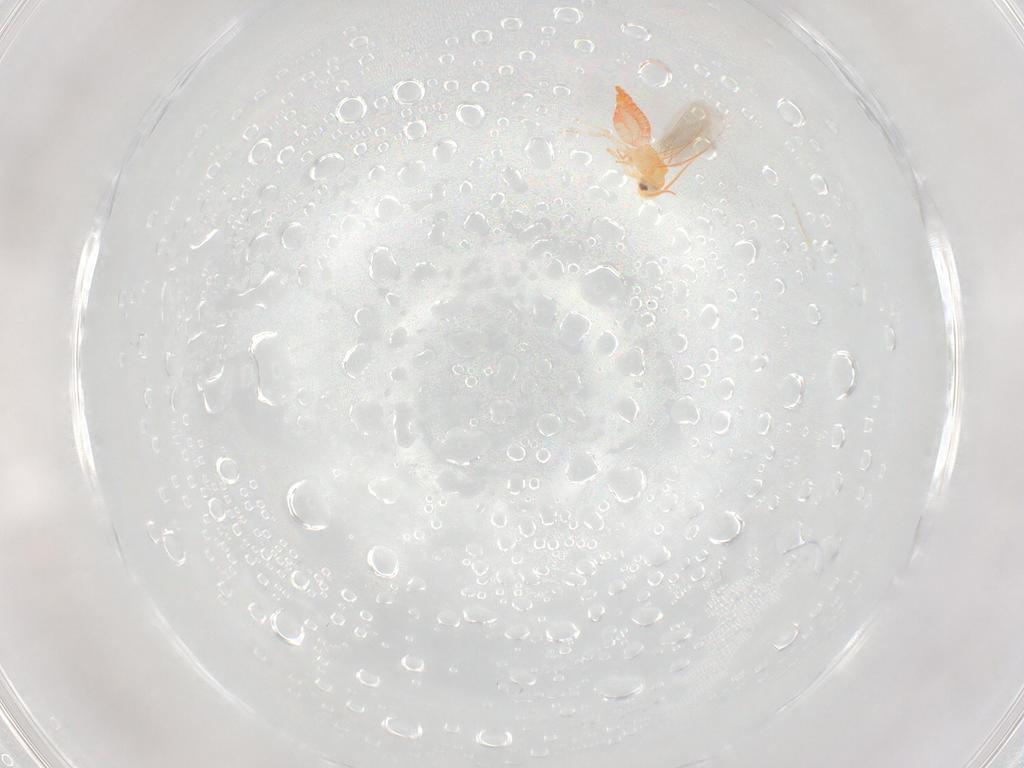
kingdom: Animalia
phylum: Arthropoda
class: Insecta
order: Hemiptera
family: Aleyrodidae
